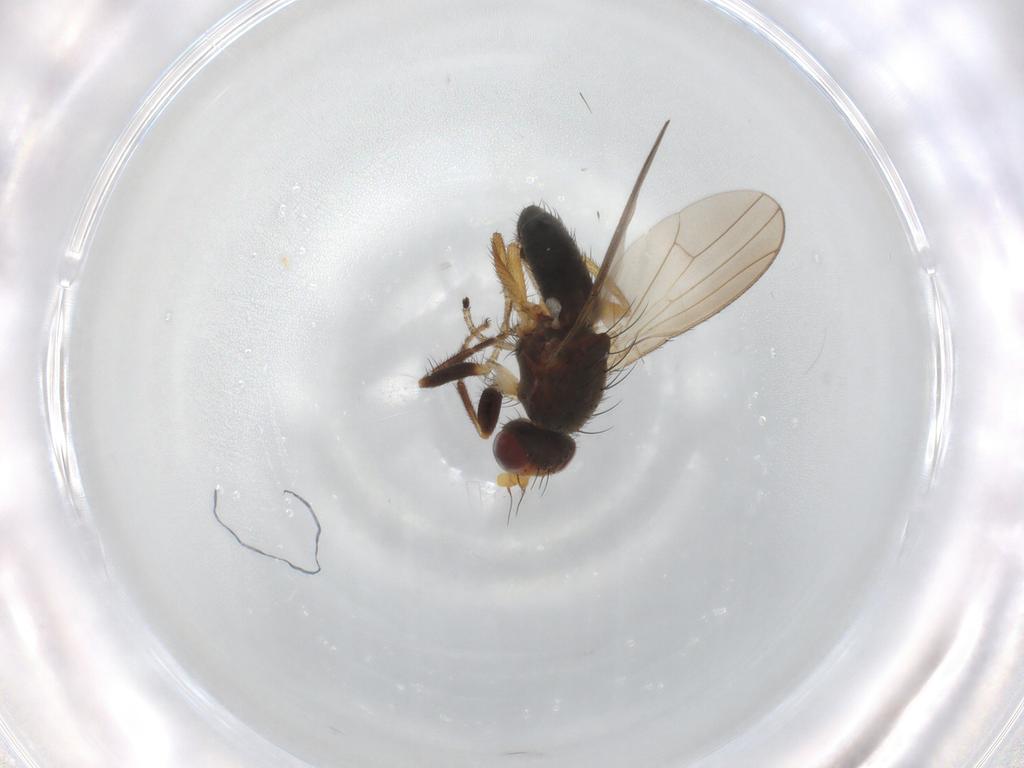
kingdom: Animalia
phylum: Arthropoda
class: Insecta
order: Diptera
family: Heleomyzidae
